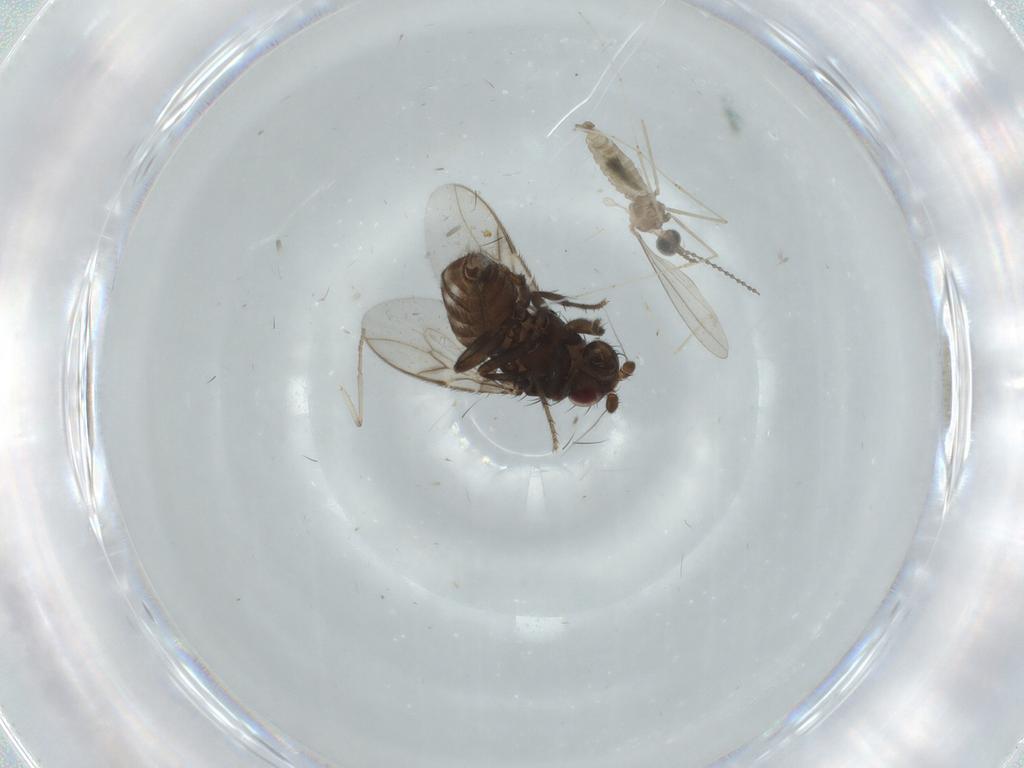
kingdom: Animalia
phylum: Arthropoda
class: Insecta
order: Diptera
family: Cecidomyiidae
